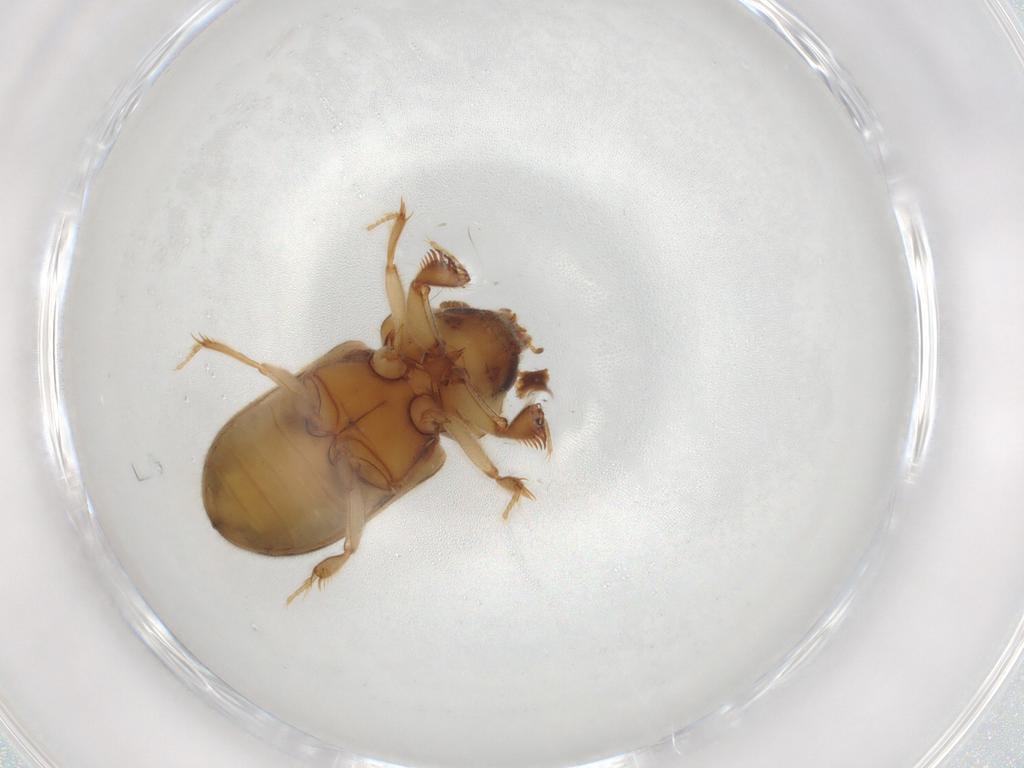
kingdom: Animalia
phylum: Arthropoda
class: Insecta
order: Coleoptera
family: Heteroceridae
